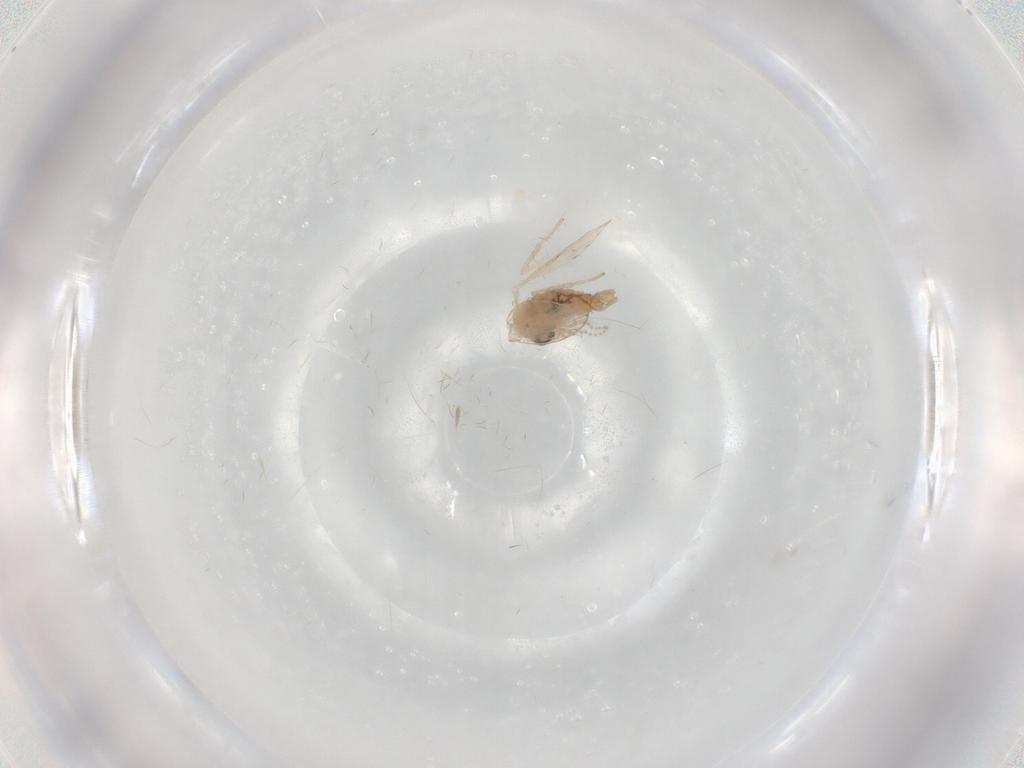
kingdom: Animalia
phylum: Arthropoda
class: Insecta
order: Diptera
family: Psychodidae
